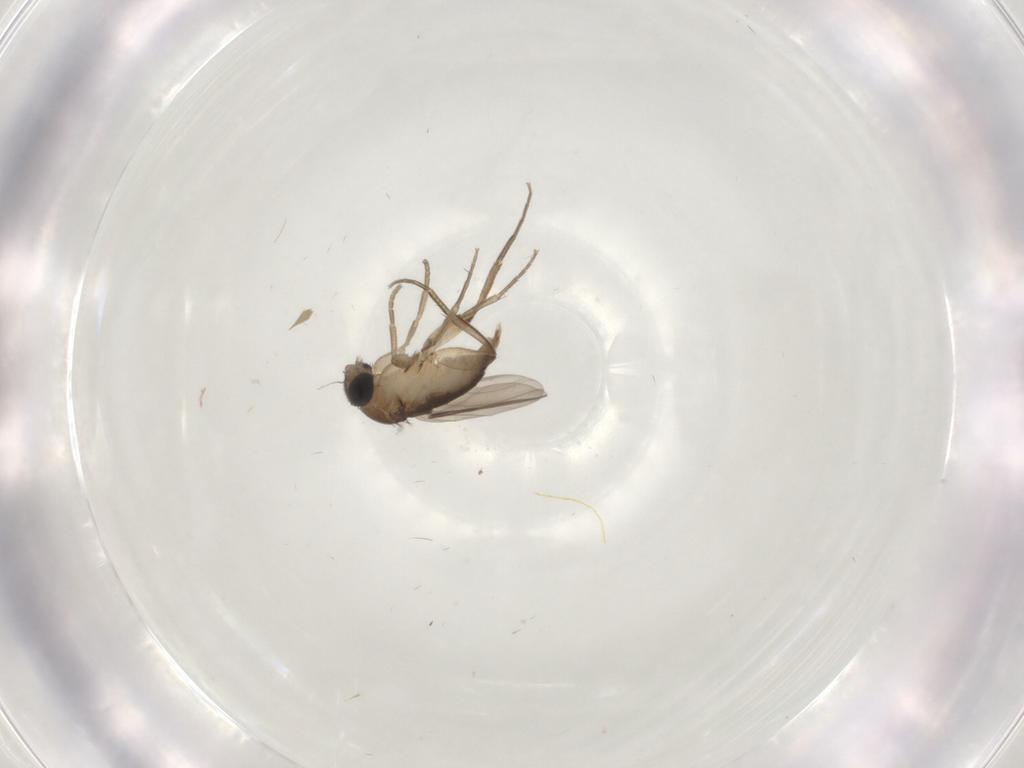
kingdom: Animalia
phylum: Arthropoda
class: Insecta
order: Diptera
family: Phoridae
